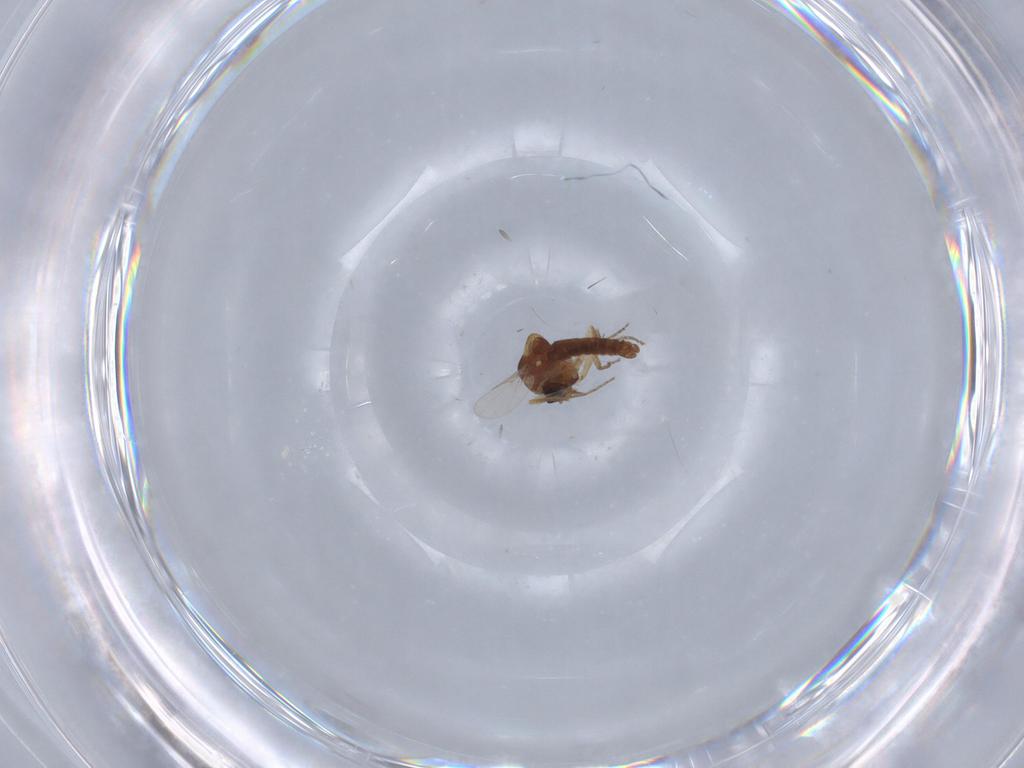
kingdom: Animalia
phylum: Arthropoda
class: Insecta
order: Diptera
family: Ceratopogonidae
